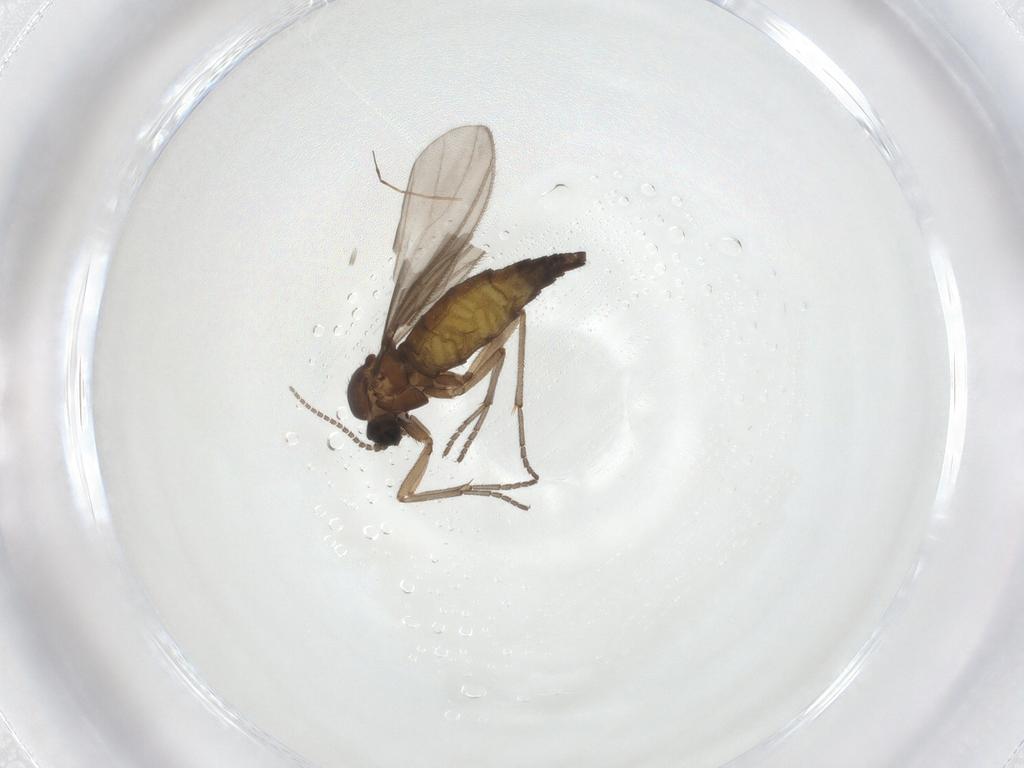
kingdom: Animalia
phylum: Arthropoda
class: Insecta
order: Diptera
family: Sciaridae
